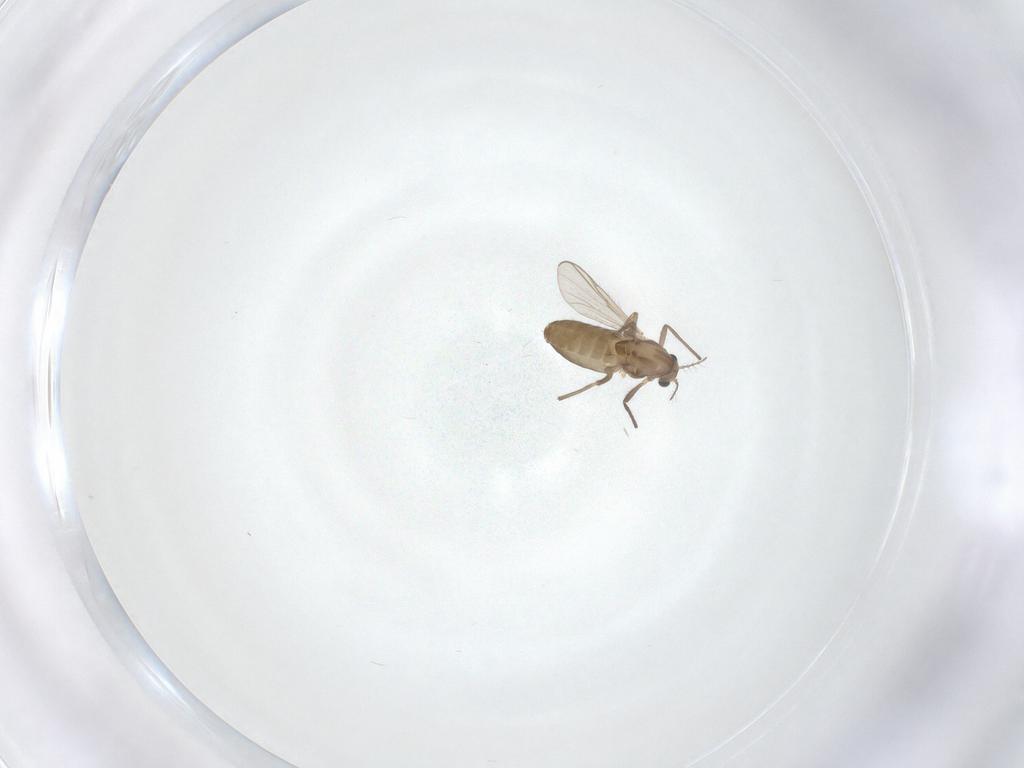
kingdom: Animalia
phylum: Arthropoda
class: Insecta
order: Diptera
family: Chironomidae
